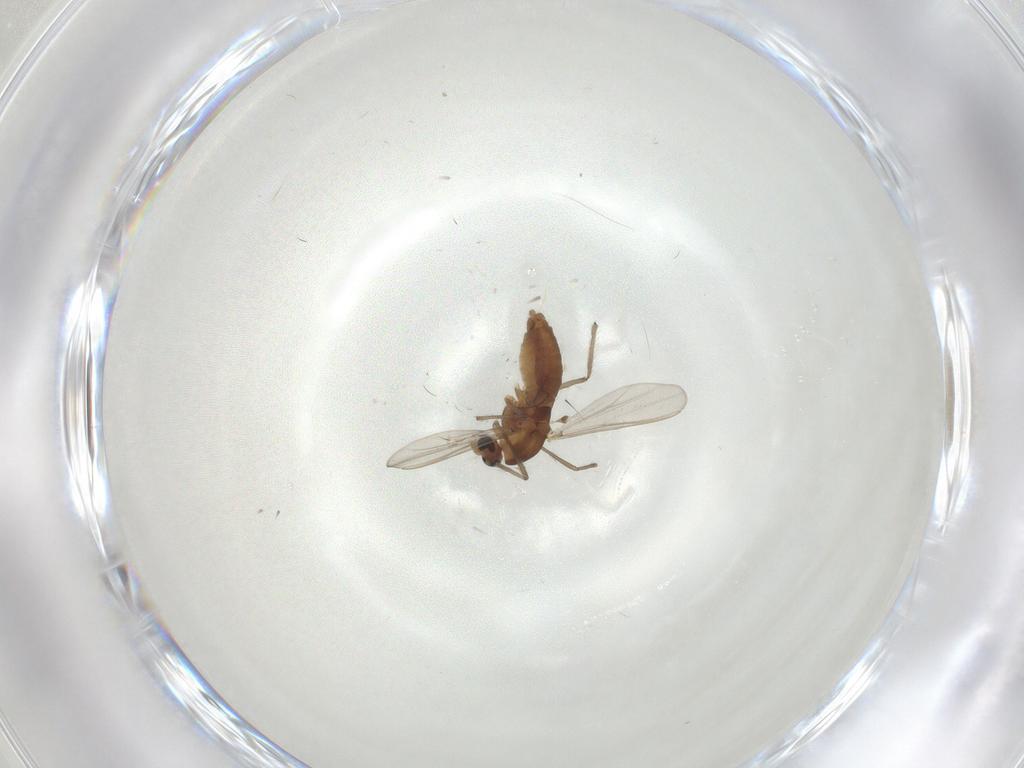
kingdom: Animalia
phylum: Arthropoda
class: Insecta
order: Diptera
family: Chironomidae
